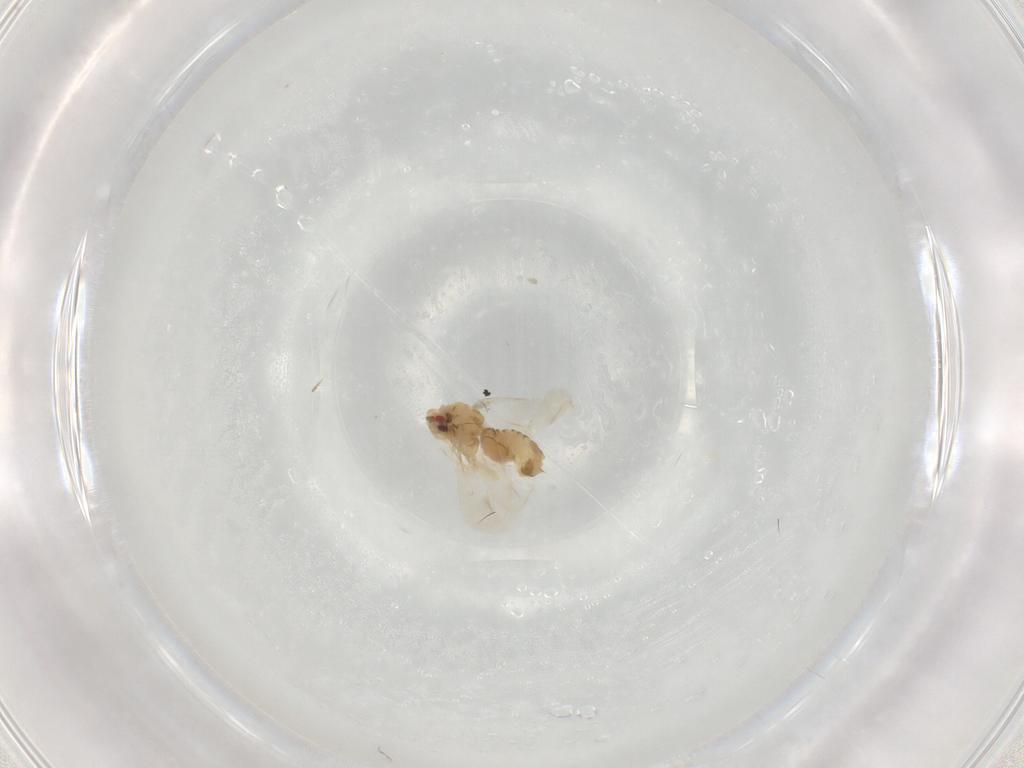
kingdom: Animalia
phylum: Arthropoda
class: Insecta
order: Hemiptera
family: Aleyrodidae
